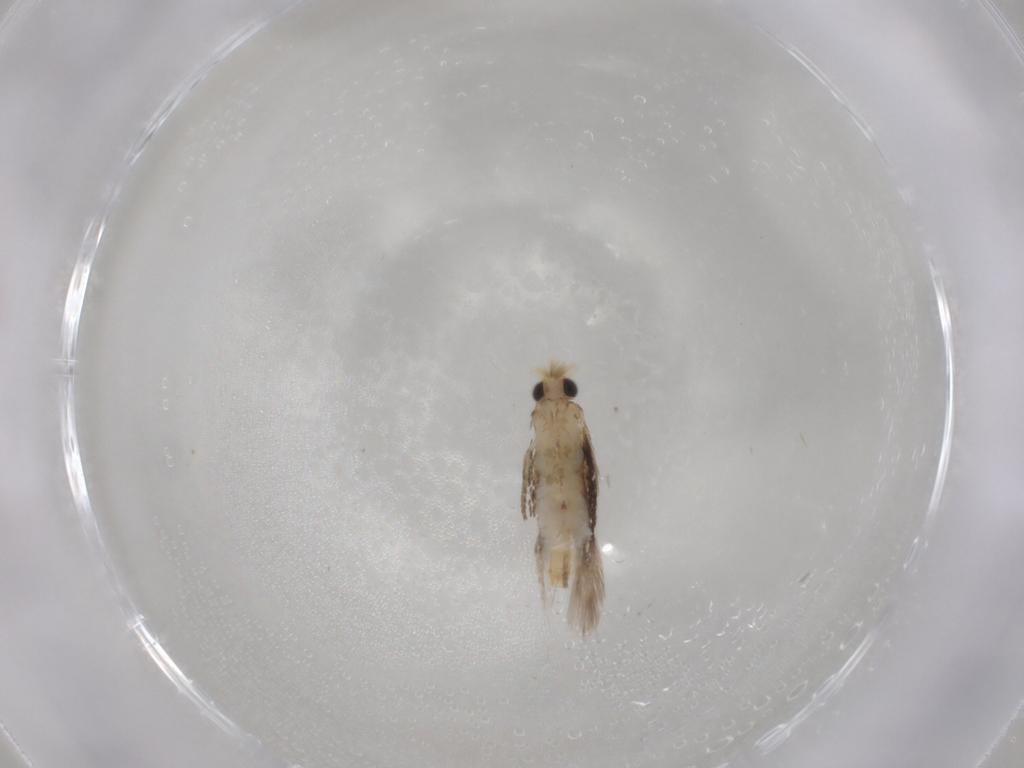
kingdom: Animalia
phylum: Arthropoda
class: Insecta
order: Lepidoptera
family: Nepticulidae
